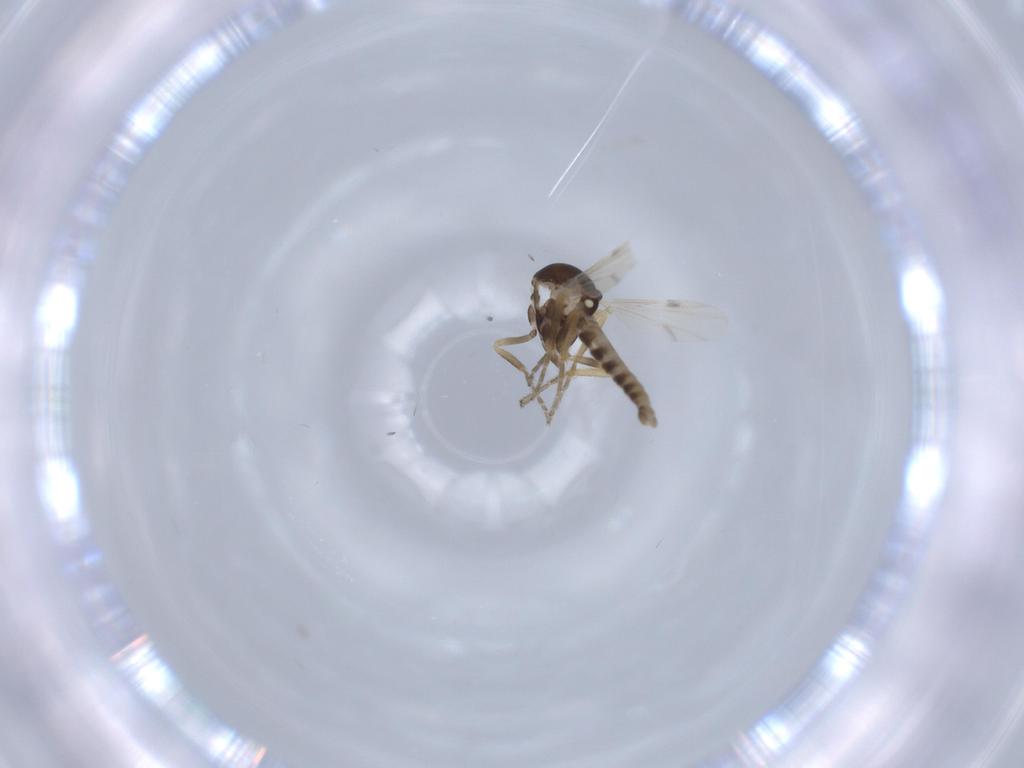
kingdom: Animalia
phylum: Arthropoda
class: Insecta
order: Diptera
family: Ceratopogonidae
